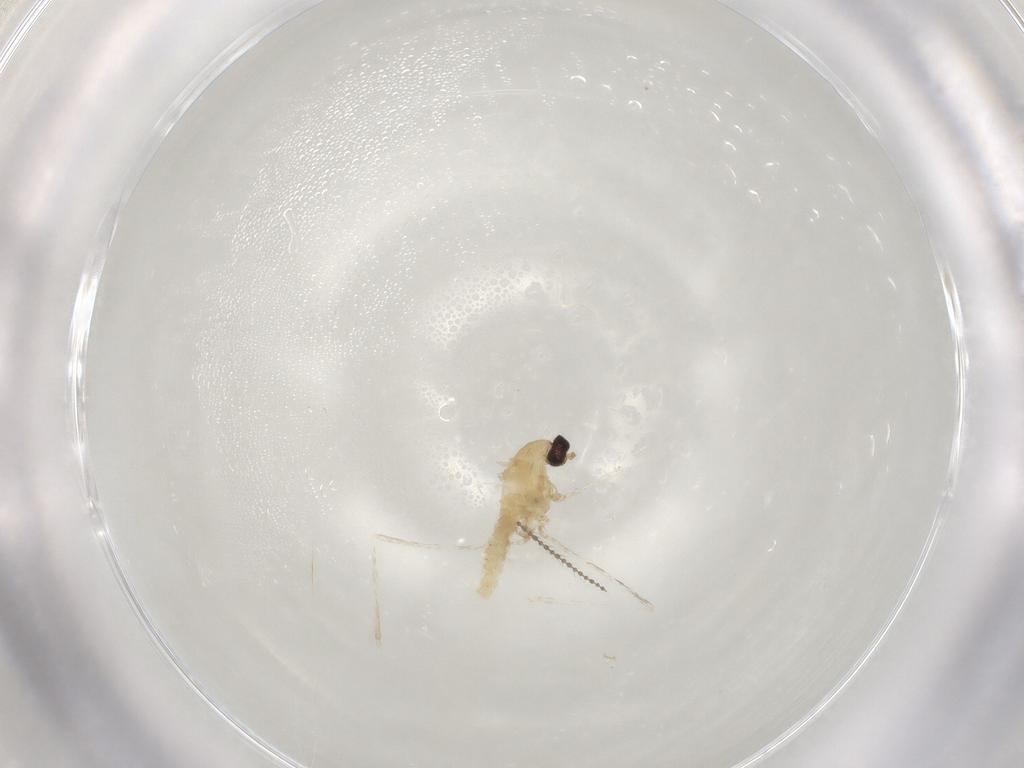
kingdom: Animalia
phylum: Arthropoda
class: Insecta
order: Diptera
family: Cecidomyiidae
